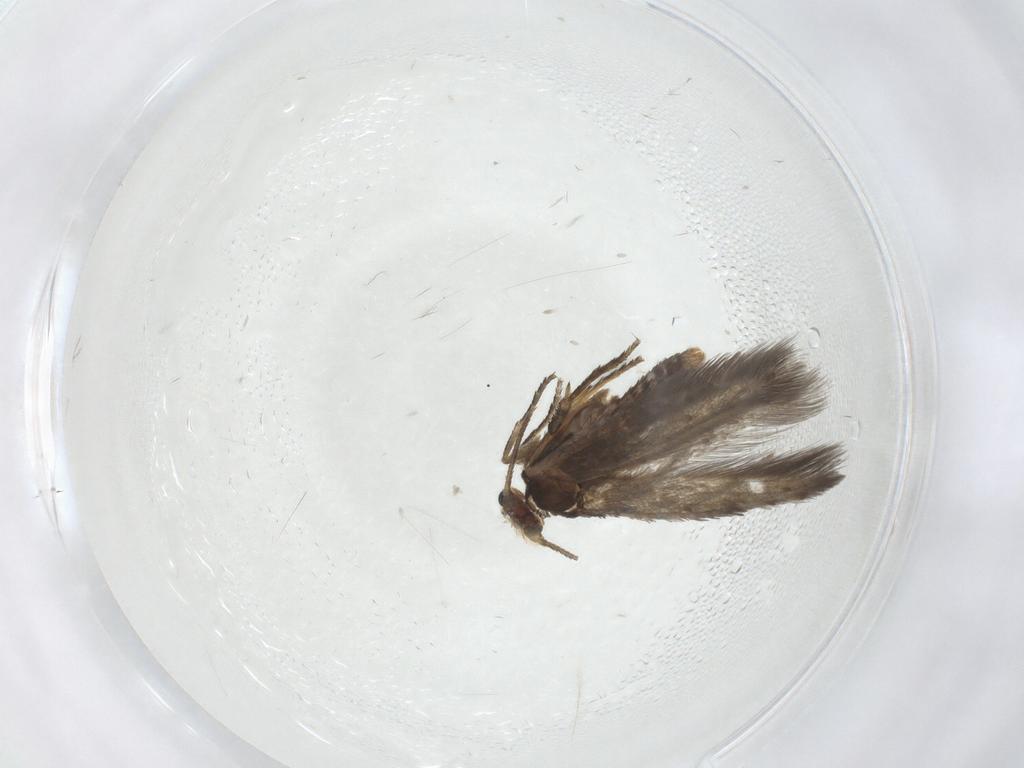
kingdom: Animalia
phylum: Arthropoda
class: Insecta
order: Lepidoptera
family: Nepticulidae
